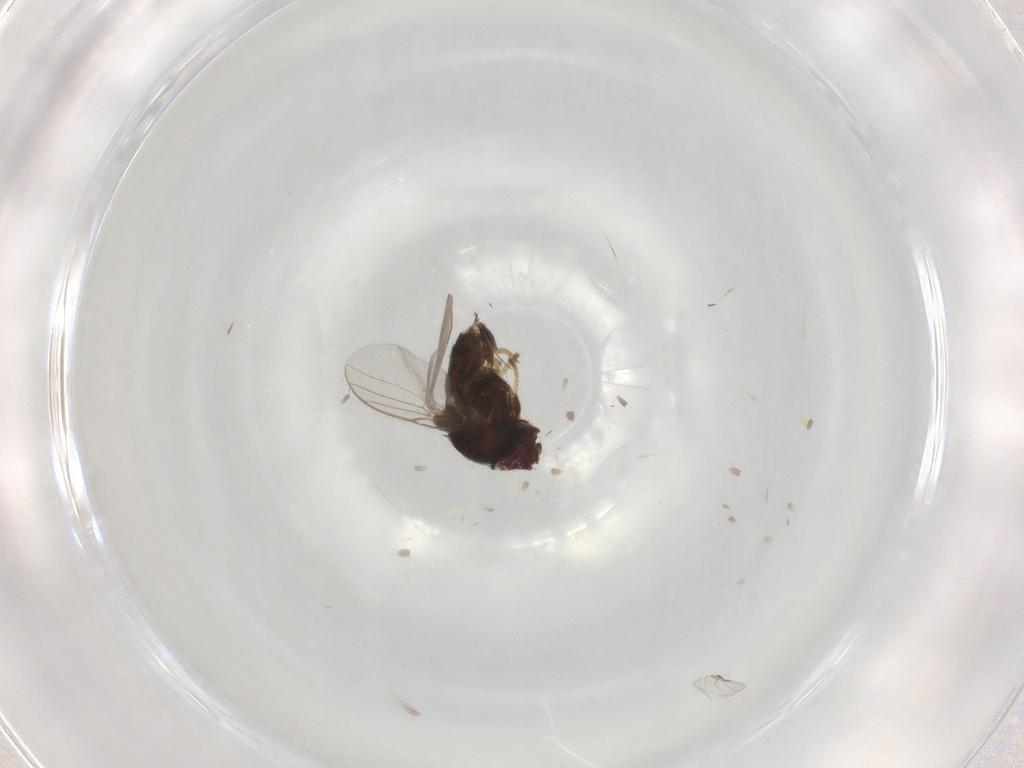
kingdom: Animalia
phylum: Arthropoda
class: Insecta
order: Diptera
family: Chloropidae
